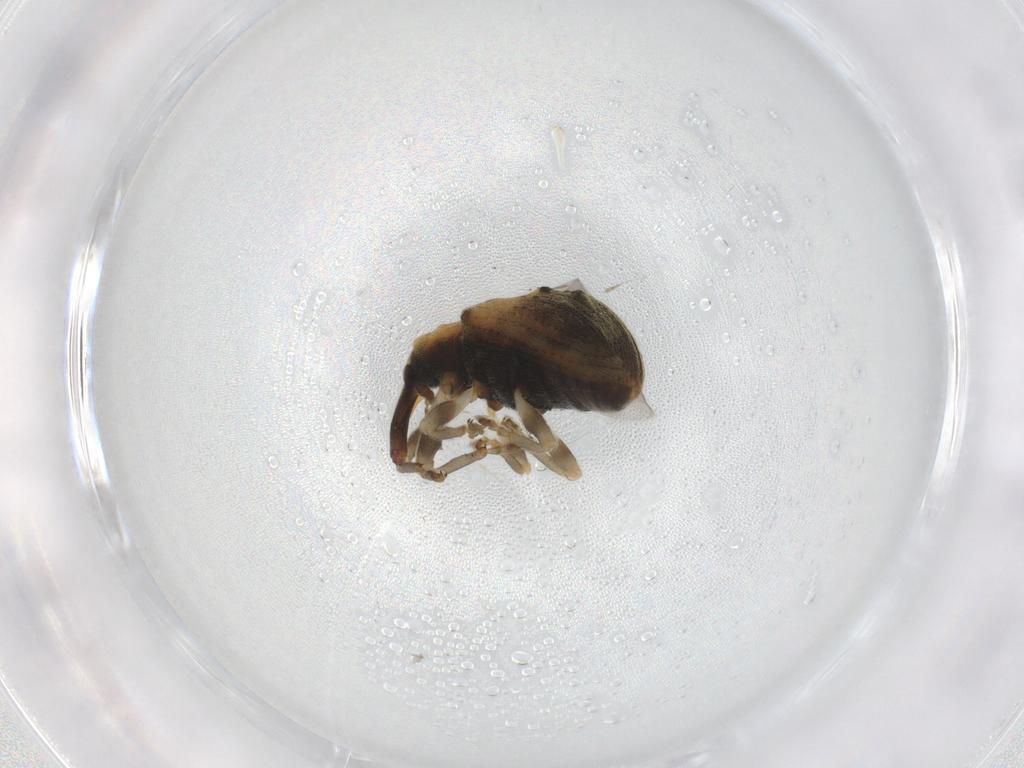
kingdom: Animalia
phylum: Arthropoda
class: Insecta
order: Coleoptera
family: Curculionidae
